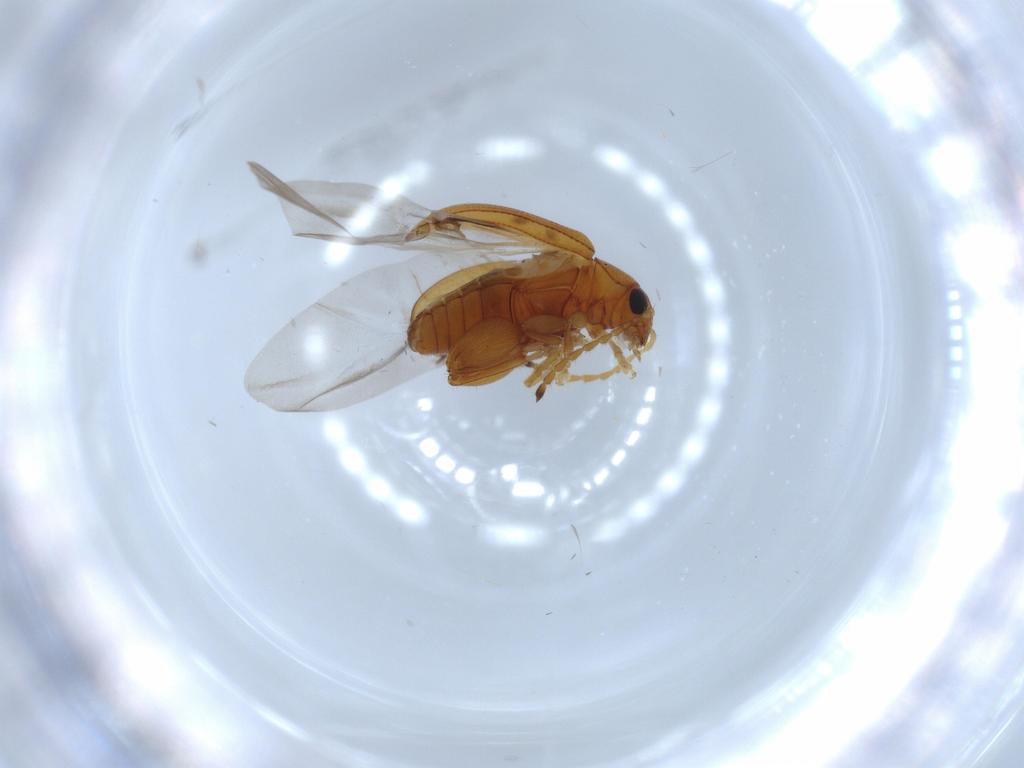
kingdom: Animalia
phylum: Arthropoda
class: Insecta
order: Coleoptera
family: Chrysomelidae
